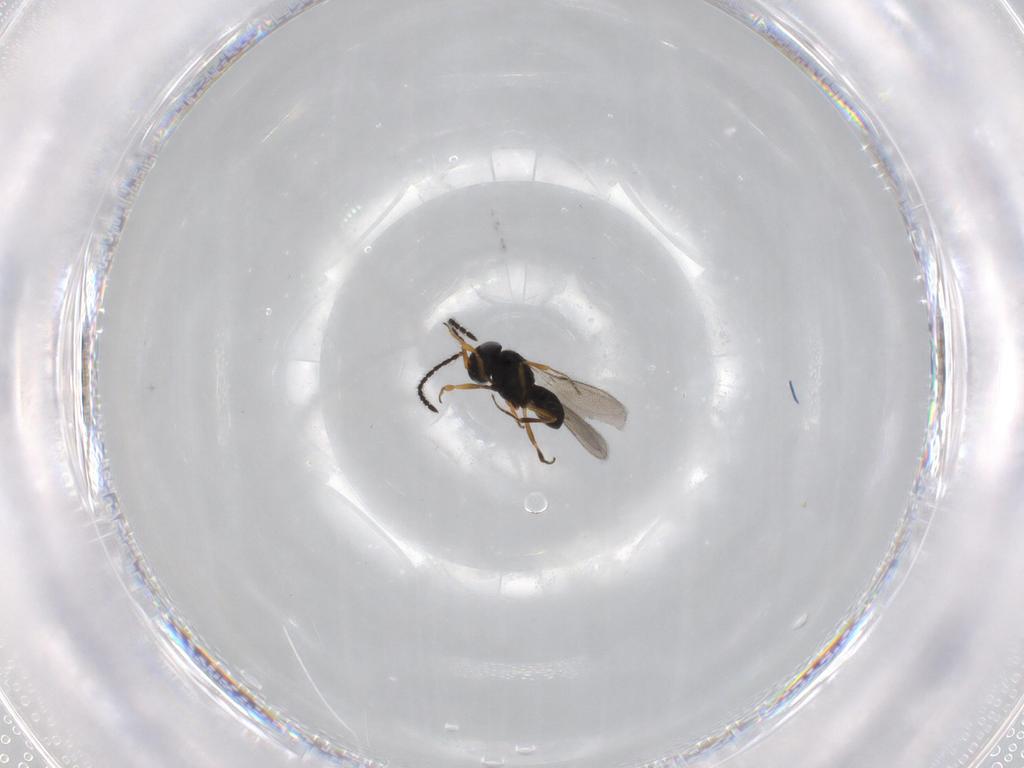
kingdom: Animalia
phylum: Arthropoda
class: Insecta
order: Hymenoptera
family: Scelionidae
